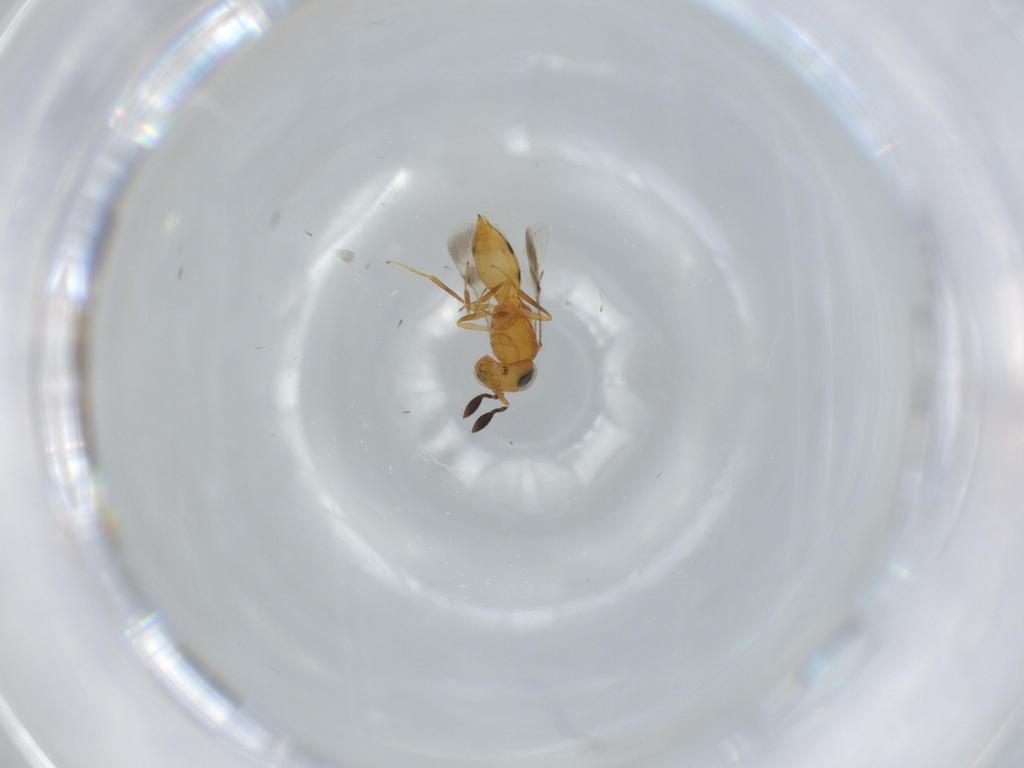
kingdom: Animalia
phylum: Arthropoda
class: Insecta
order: Hymenoptera
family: Scelionidae
